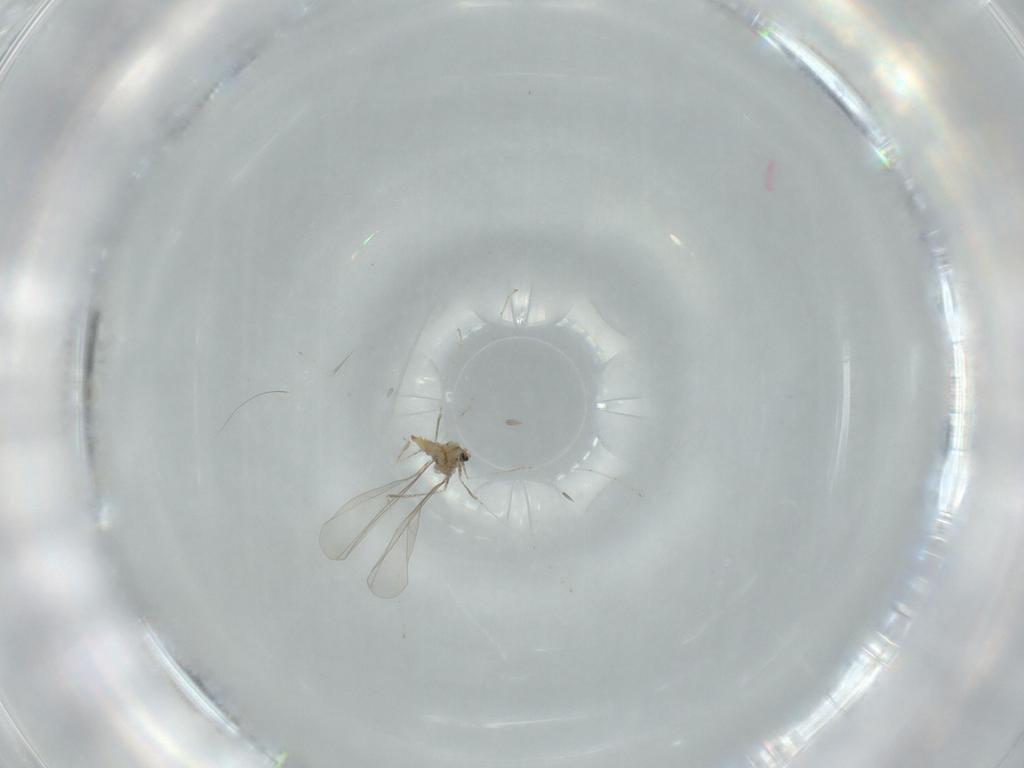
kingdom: Animalia
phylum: Arthropoda
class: Insecta
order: Diptera
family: Cecidomyiidae
